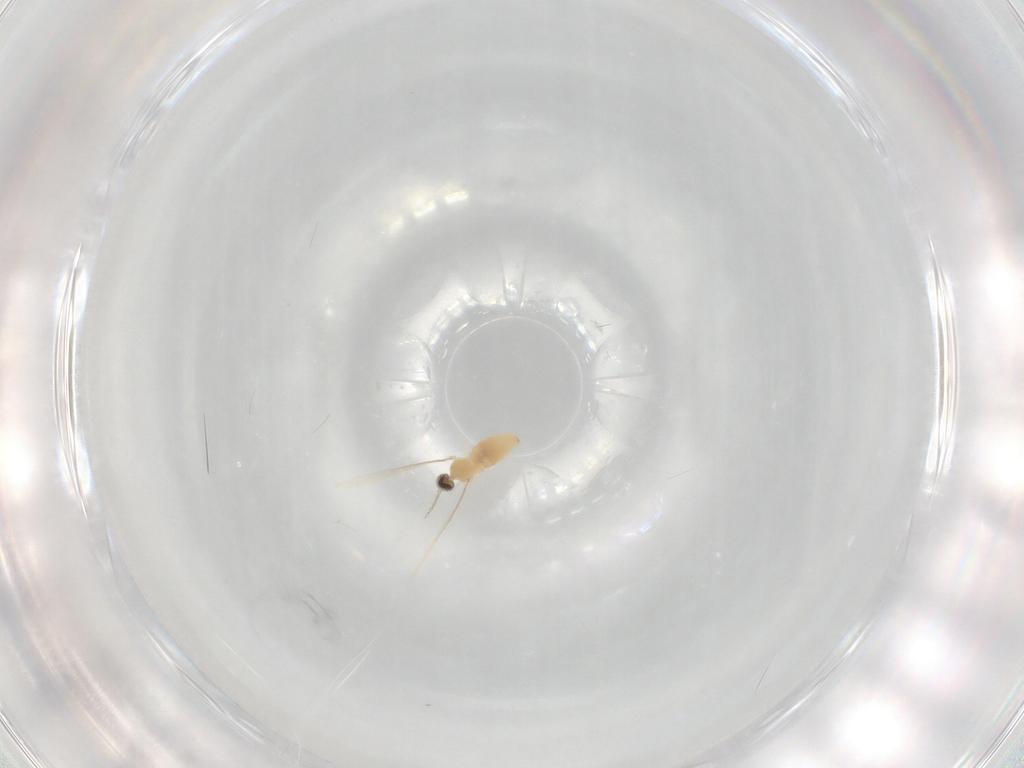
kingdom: Animalia
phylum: Arthropoda
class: Insecta
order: Diptera
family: Cecidomyiidae
